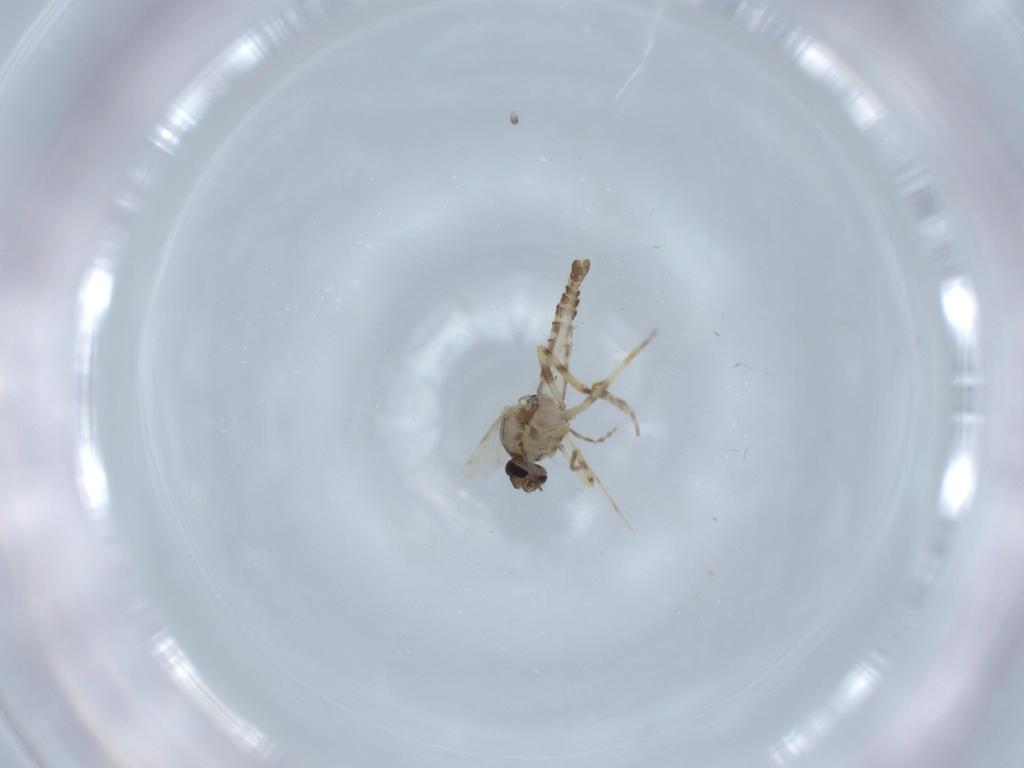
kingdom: Animalia
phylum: Arthropoda
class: Insecta
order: Diptera
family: Ceratopogonidae
